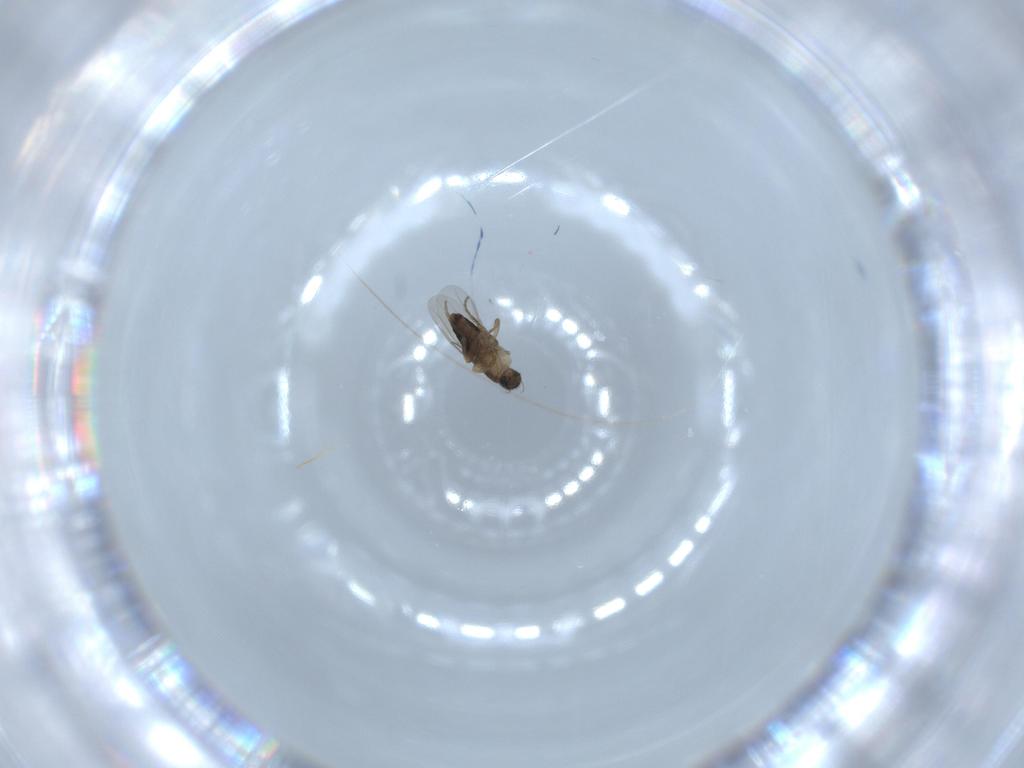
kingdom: Animalia
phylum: Arthropoda
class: Insecta
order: Diptera
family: Phoridae
